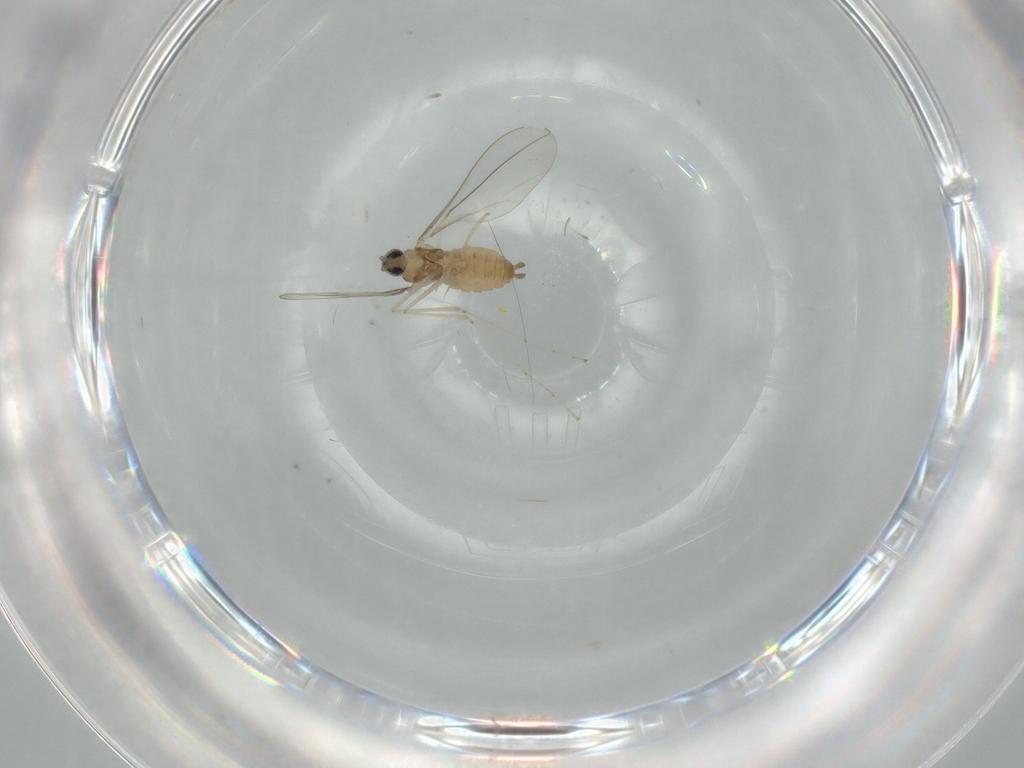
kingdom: Animalia
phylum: Arthropoda
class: Insecta
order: Diptera
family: Cecidomyiidae
